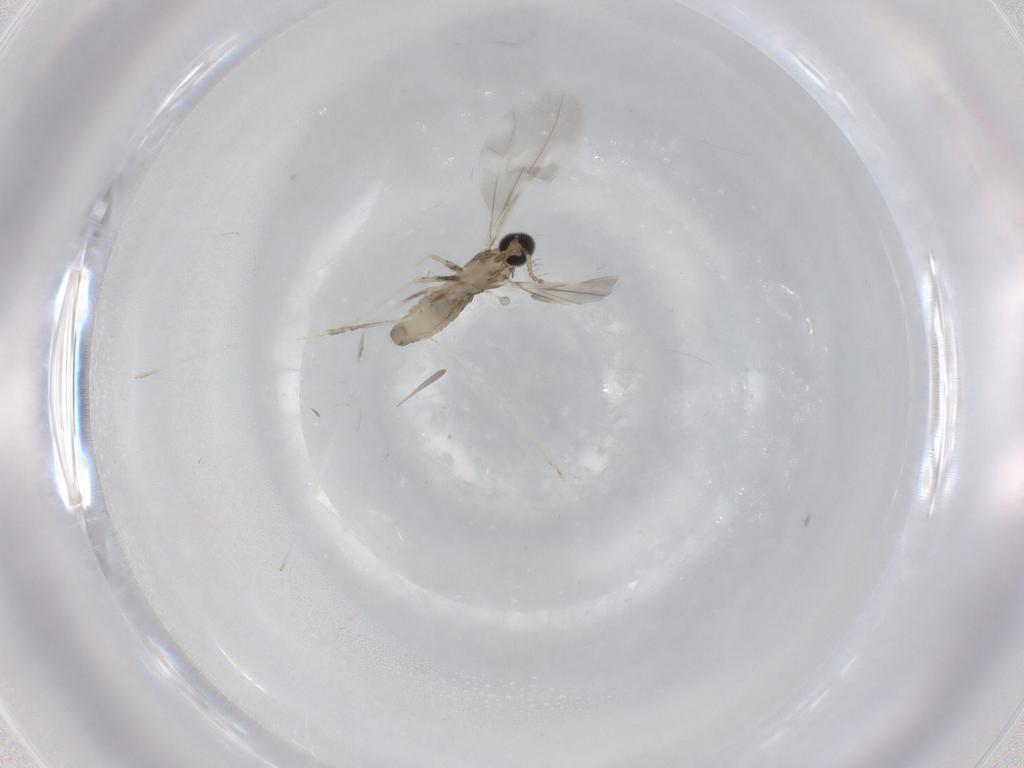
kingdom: Animalia
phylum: Arthropoda
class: Insecta
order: Diptera
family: Cecidomyiidae
